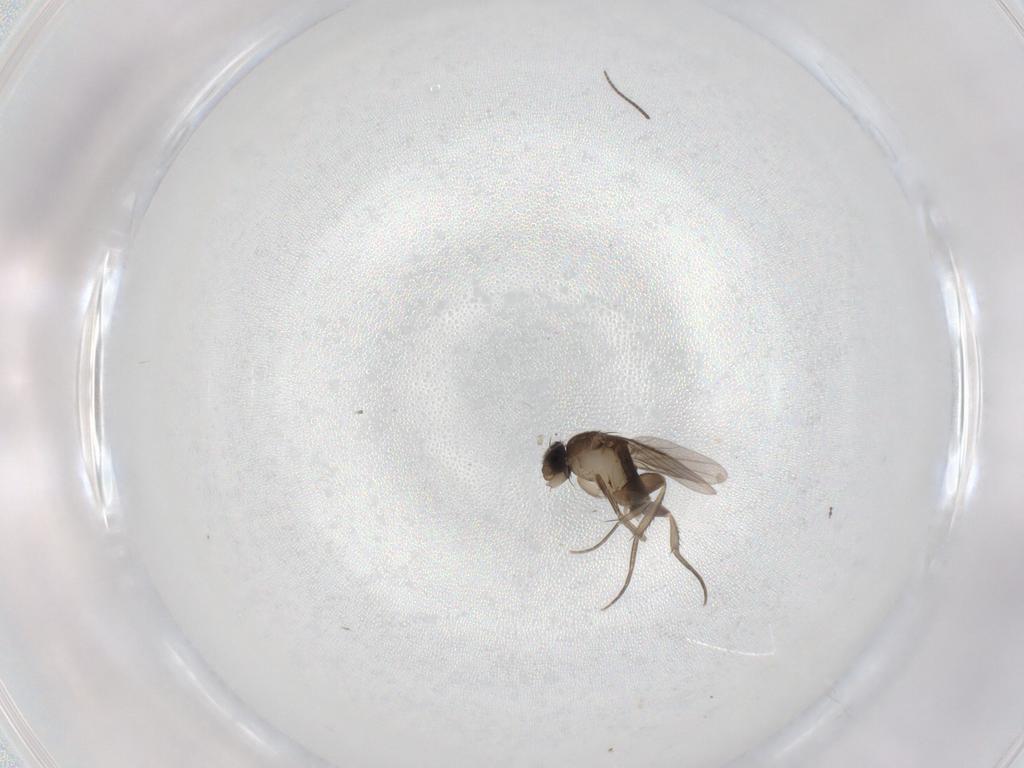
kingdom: Animalia
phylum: Arthropoda
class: Insecta
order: Diptera
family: Phoridae
